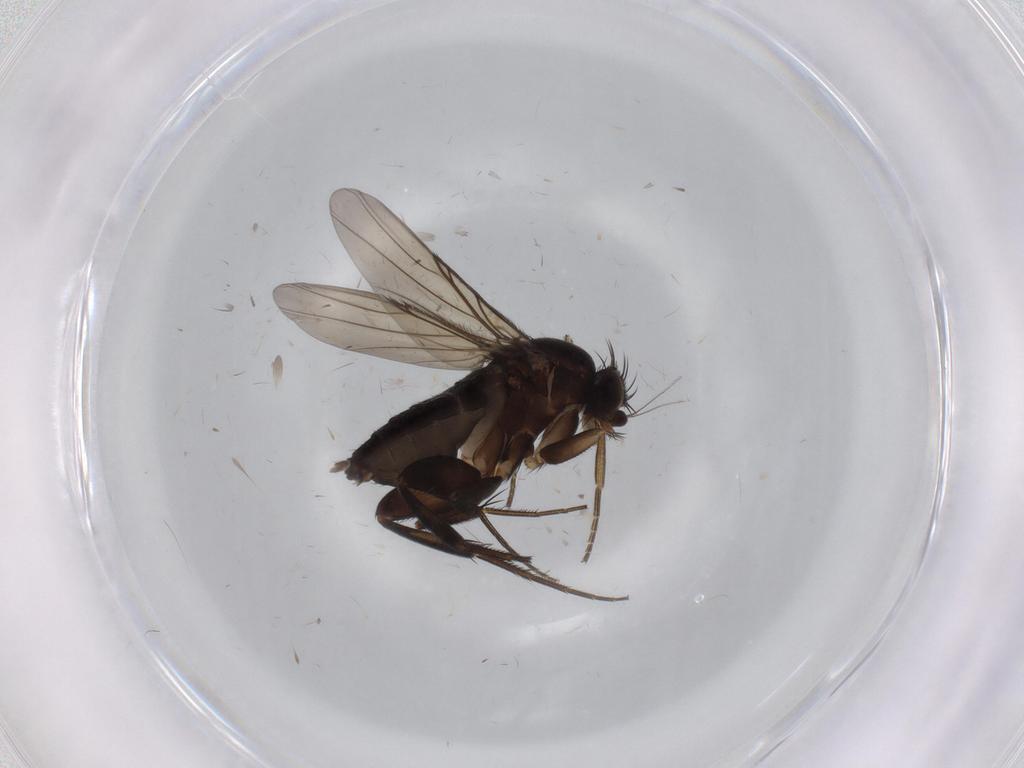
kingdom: Animalia
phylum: Arthropoda
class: Insecta
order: Diptera
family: Phoridae
